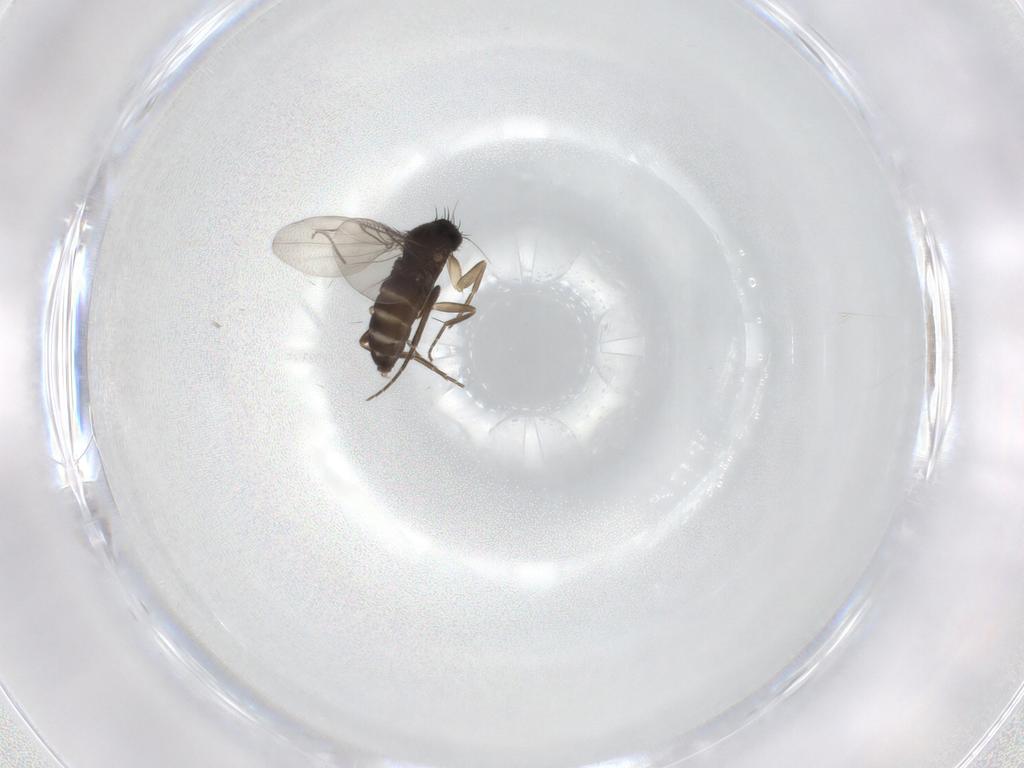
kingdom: Animalia
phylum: Arthropoda
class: Insecta
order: Diptera
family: Phoridae
